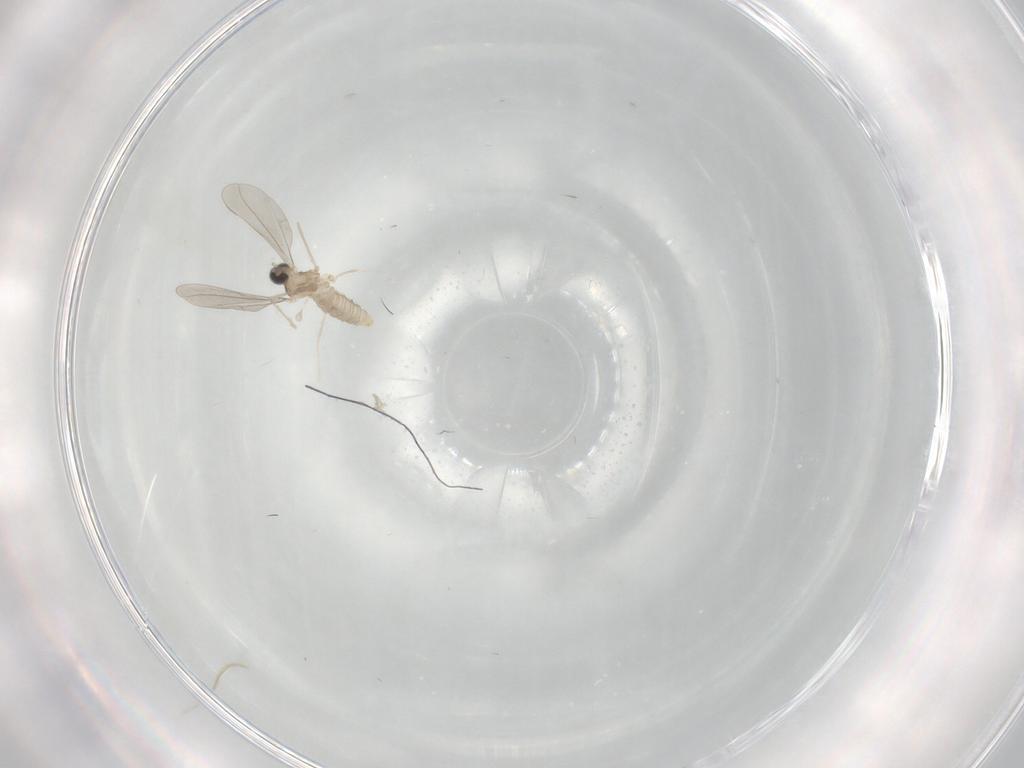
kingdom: Animalia
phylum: Arthropoda
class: Insecta
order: Diptera
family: Cecidomyiidae
